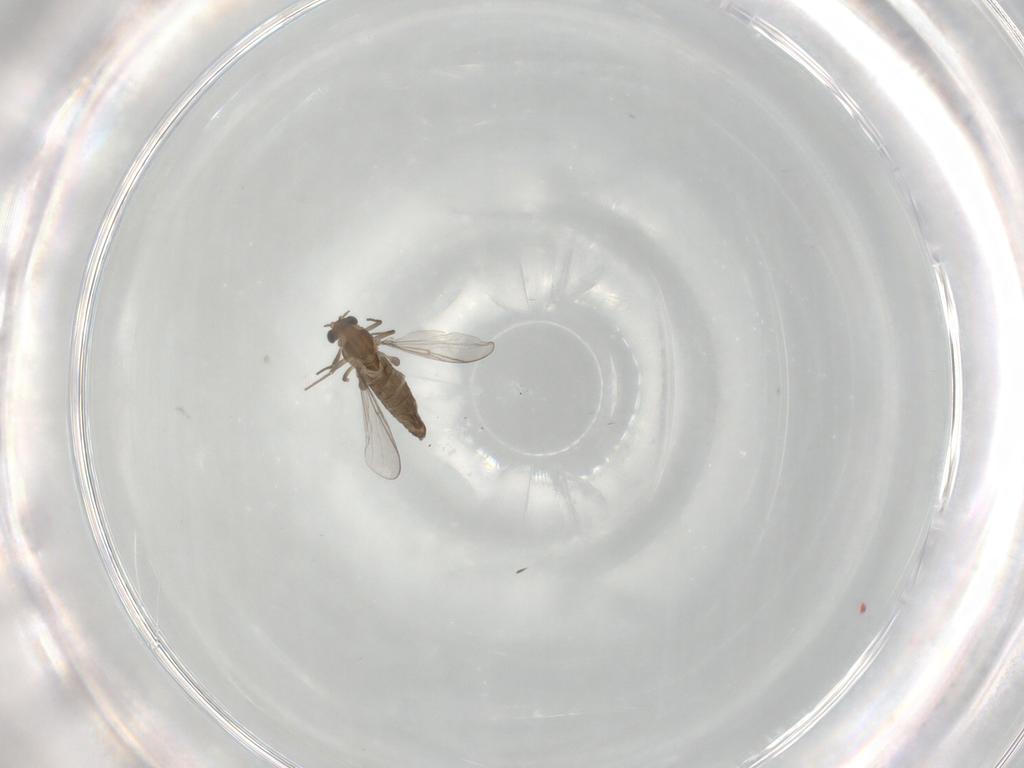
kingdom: Animalia
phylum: Arthropoda
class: Insecta
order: Diptera
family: Chironomidae
